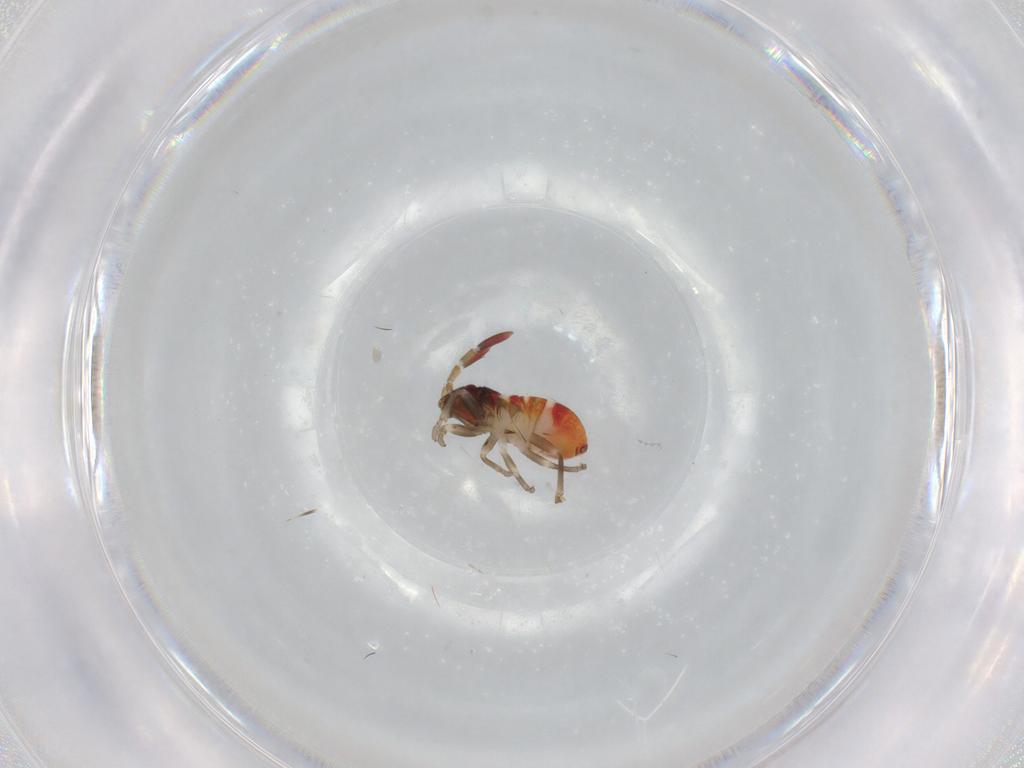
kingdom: Animalia
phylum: Arthropoda
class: Insecta
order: Hemiptera
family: Rhyparochromidae
